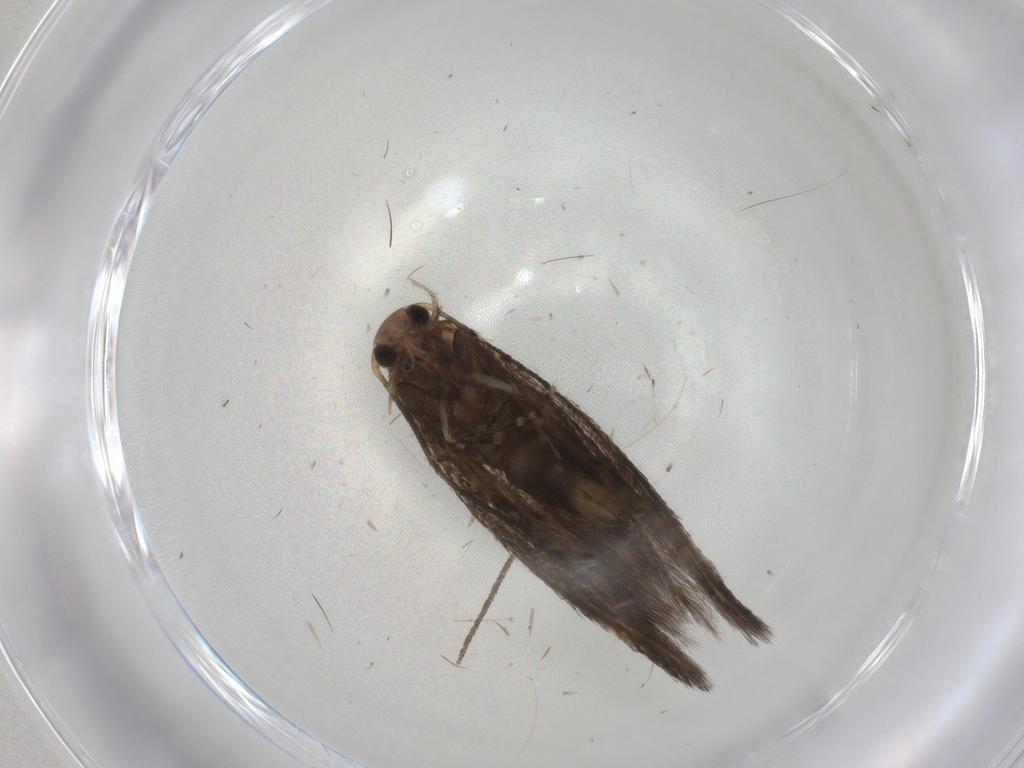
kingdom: Animalia
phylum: Arthropoda
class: Insecta
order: Lepidoptera
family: Elachistidae
